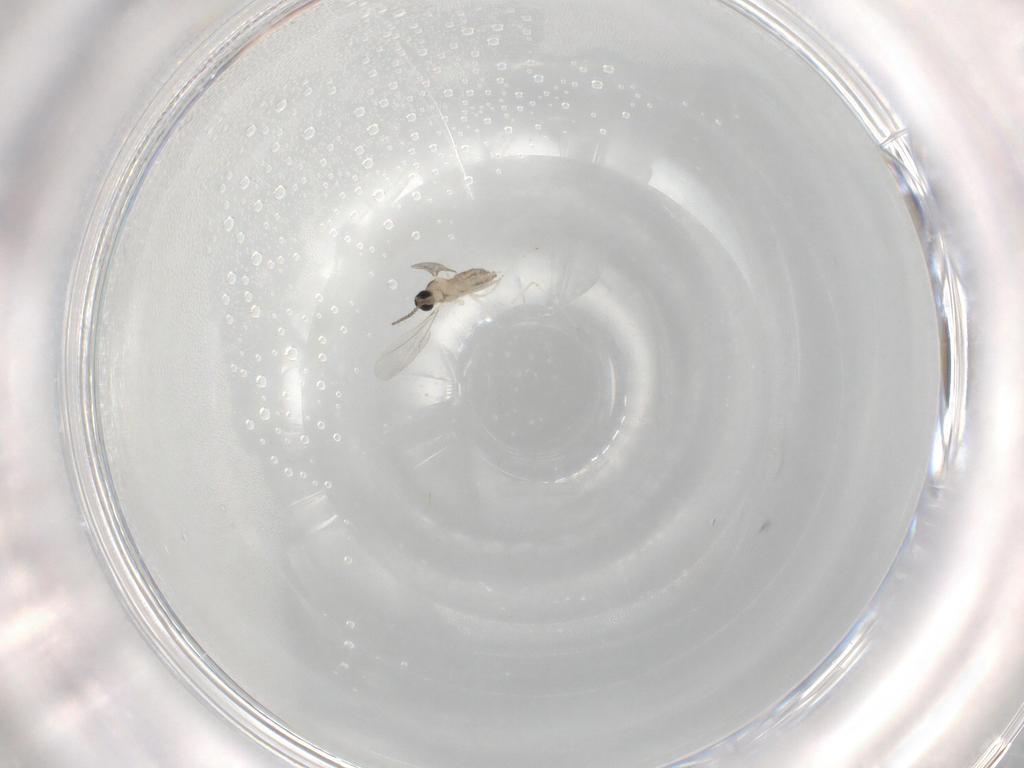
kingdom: Animalia
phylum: Arthropoda
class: Insecta
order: Diptera
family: Cecidomyiidae
